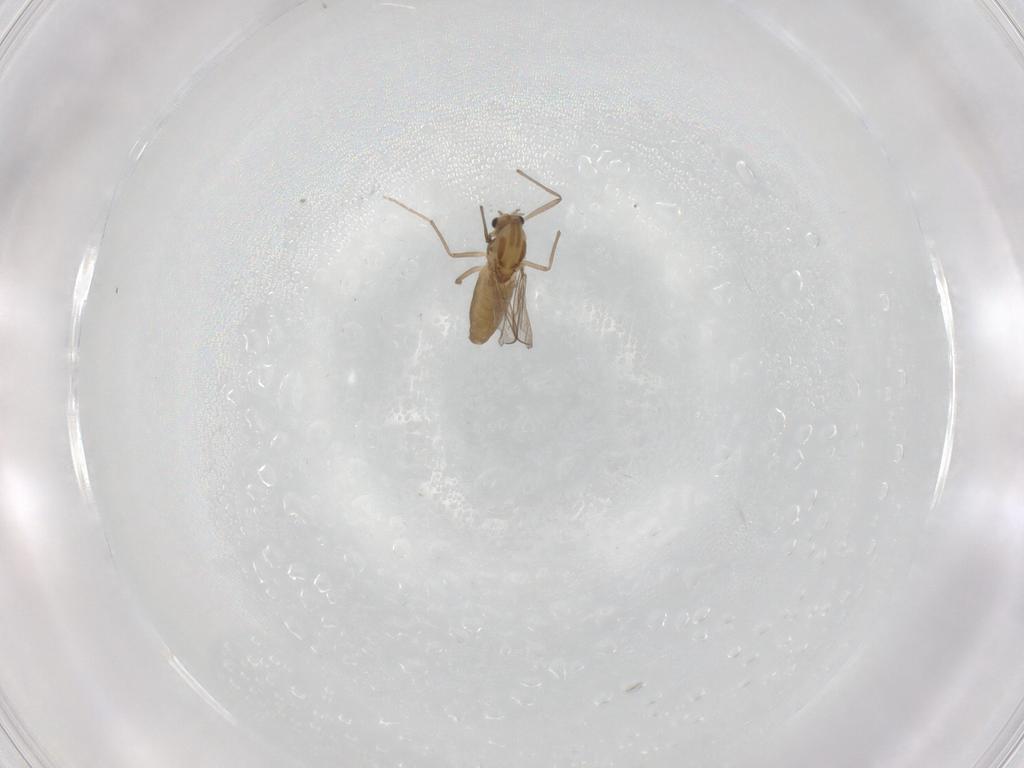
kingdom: Animalia
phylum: Arthropoda
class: Insecta
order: Diptera
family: Chironomidae
